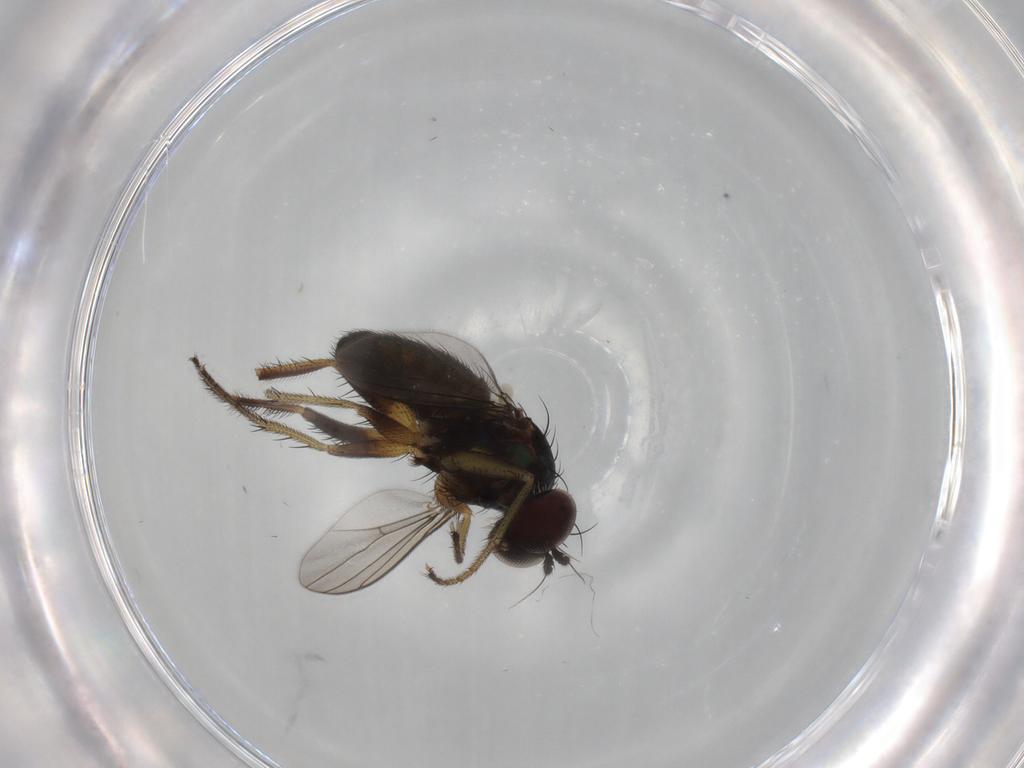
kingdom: Animalia
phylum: Arthropoda
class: Insecta
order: Diptera
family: Dolichopodidae
